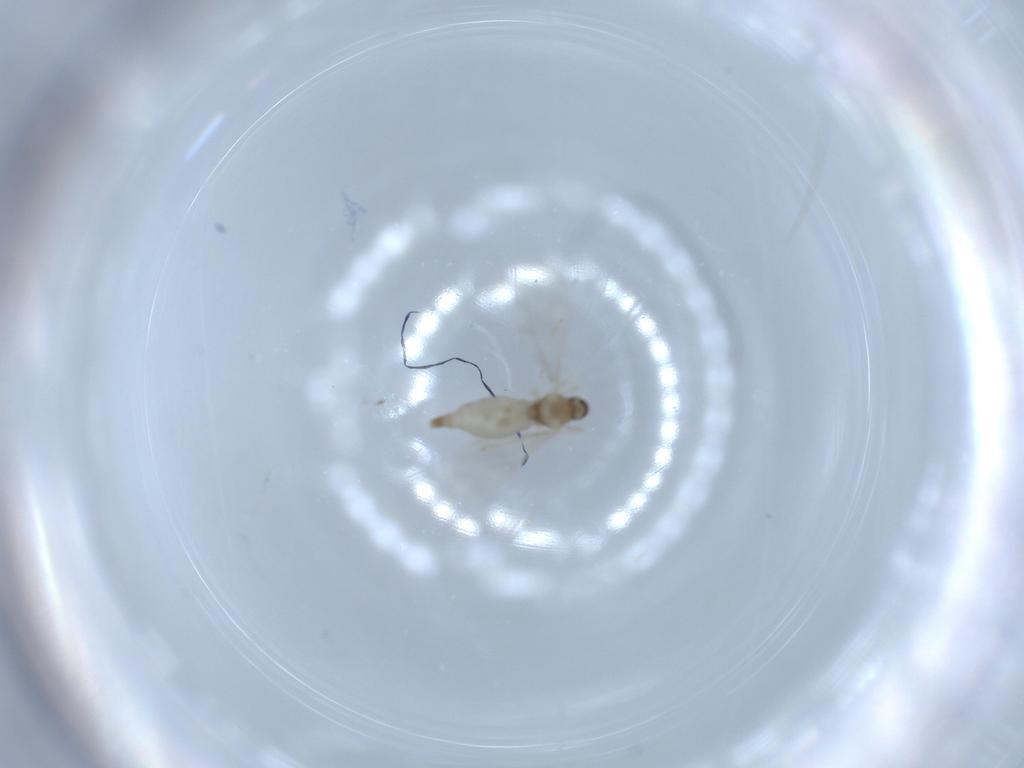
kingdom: Animalia
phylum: Arthropoda
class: Insecta
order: Diptera
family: Cecidomyiidae
